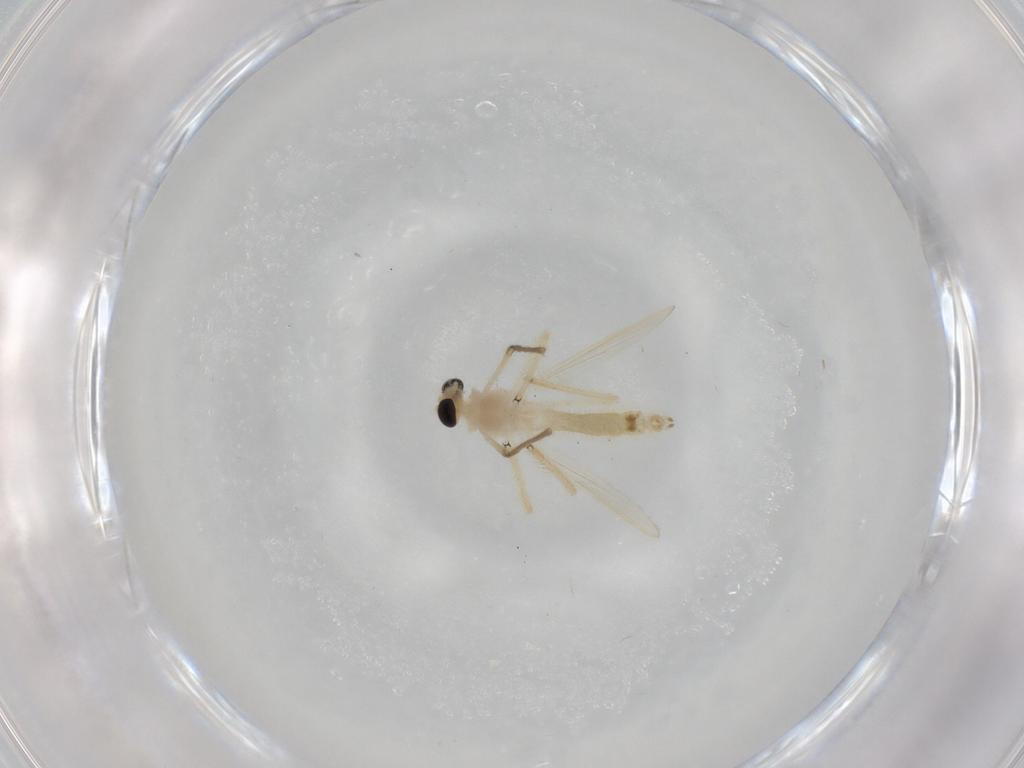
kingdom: Animalia
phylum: Arthropoda
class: Insecta
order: Diptera
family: Chironomidae
